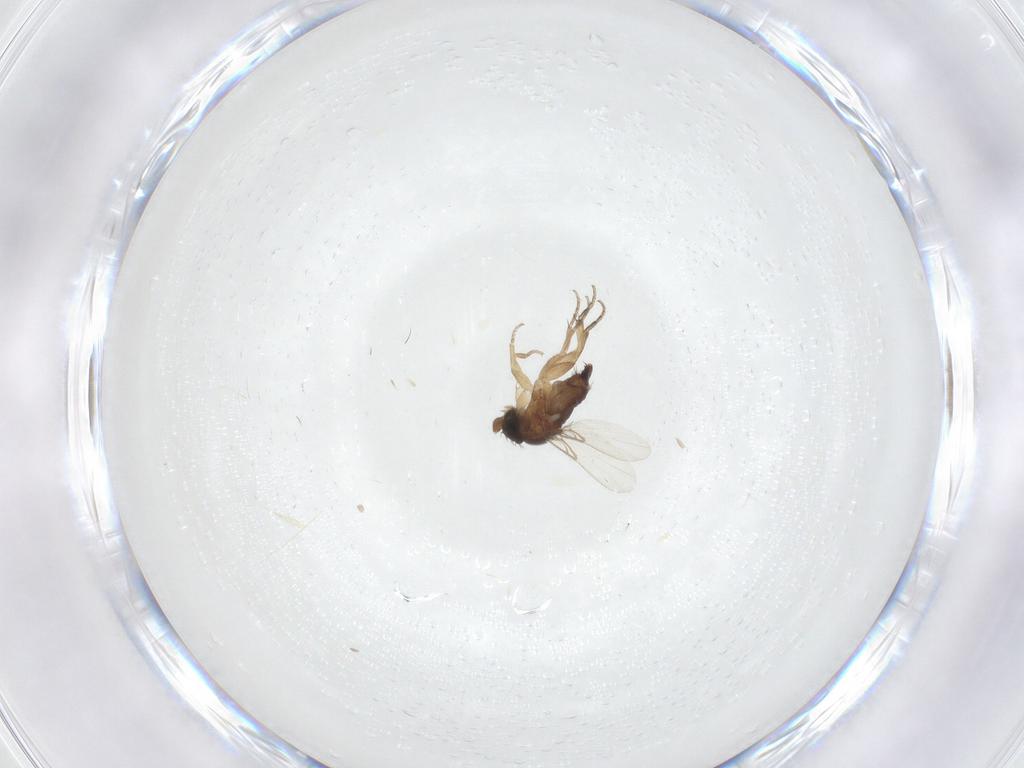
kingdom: Animalia
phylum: Arthropoda
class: Insecta
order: Diptera
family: Phoridae
